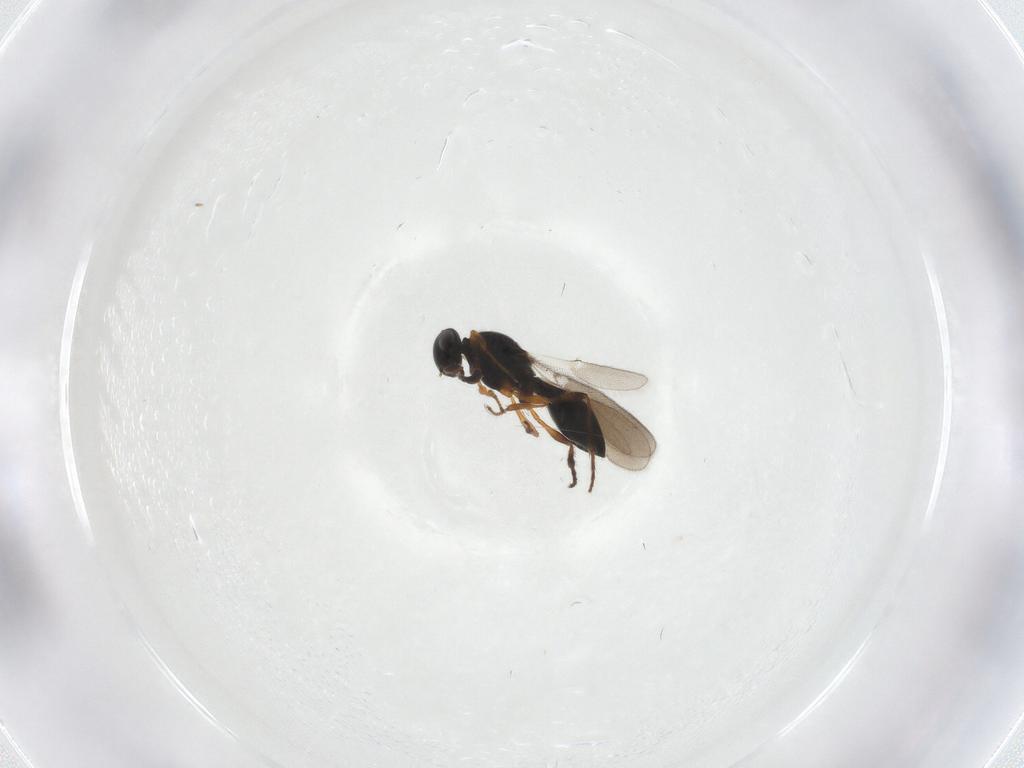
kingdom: Animalia
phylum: Arthropoda
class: Insecta
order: Hymenoptera
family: Platygastridae
